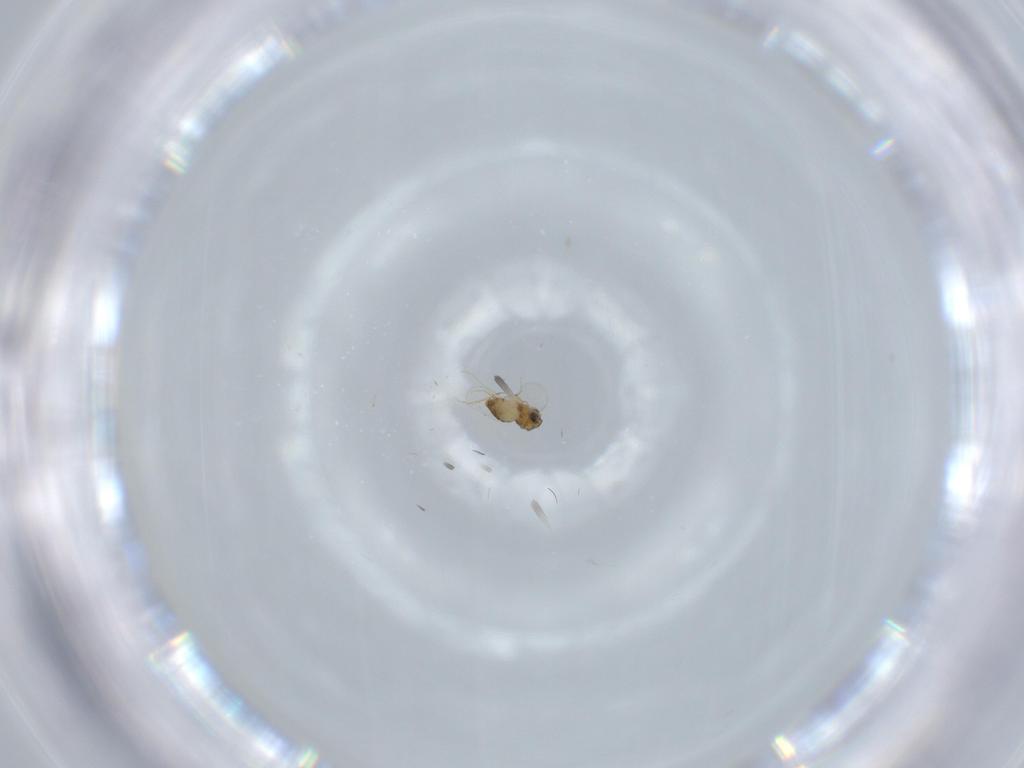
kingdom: Animalia
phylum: Arthropoda
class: Insecta
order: Diptera
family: Chironomidae
